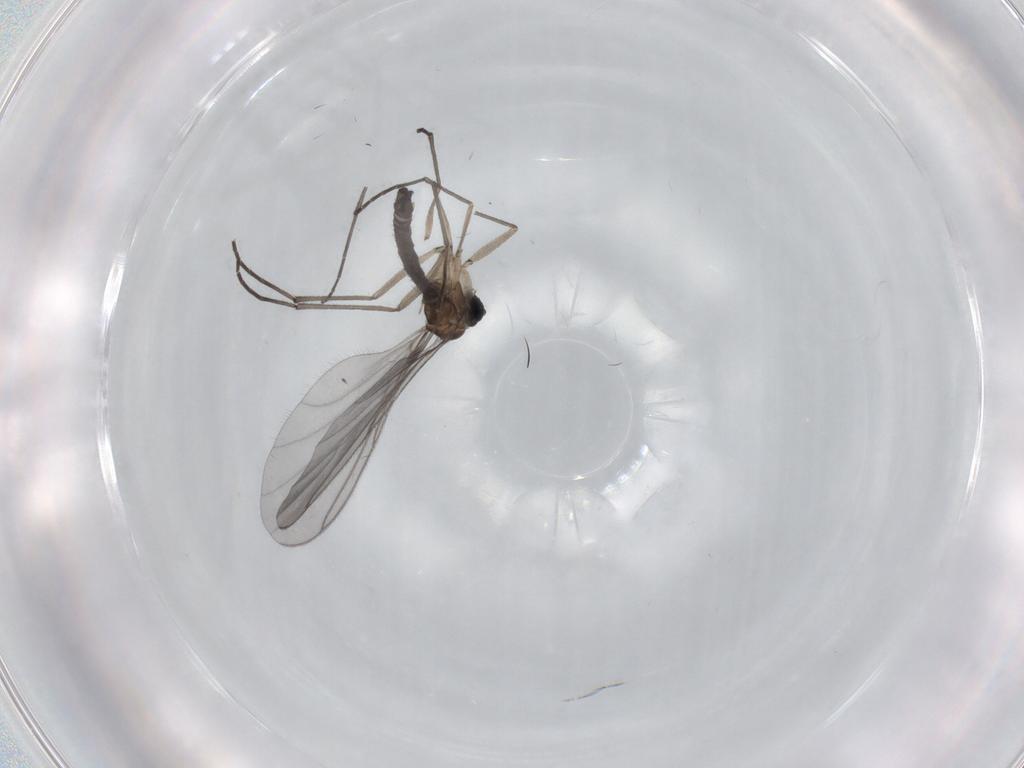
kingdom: Animalia
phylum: Arthropoda
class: Insecta
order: Diptera
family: Sciaridae
